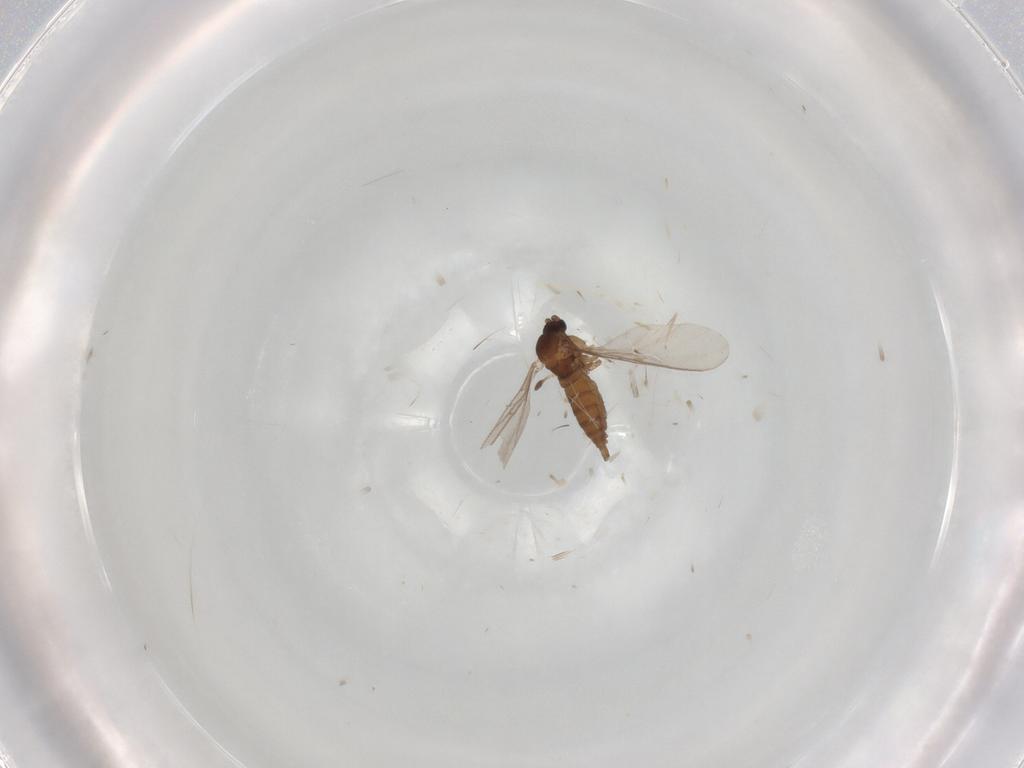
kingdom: Animalia
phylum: Arthropoda
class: Insecta
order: Diptera
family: Sciaridae
